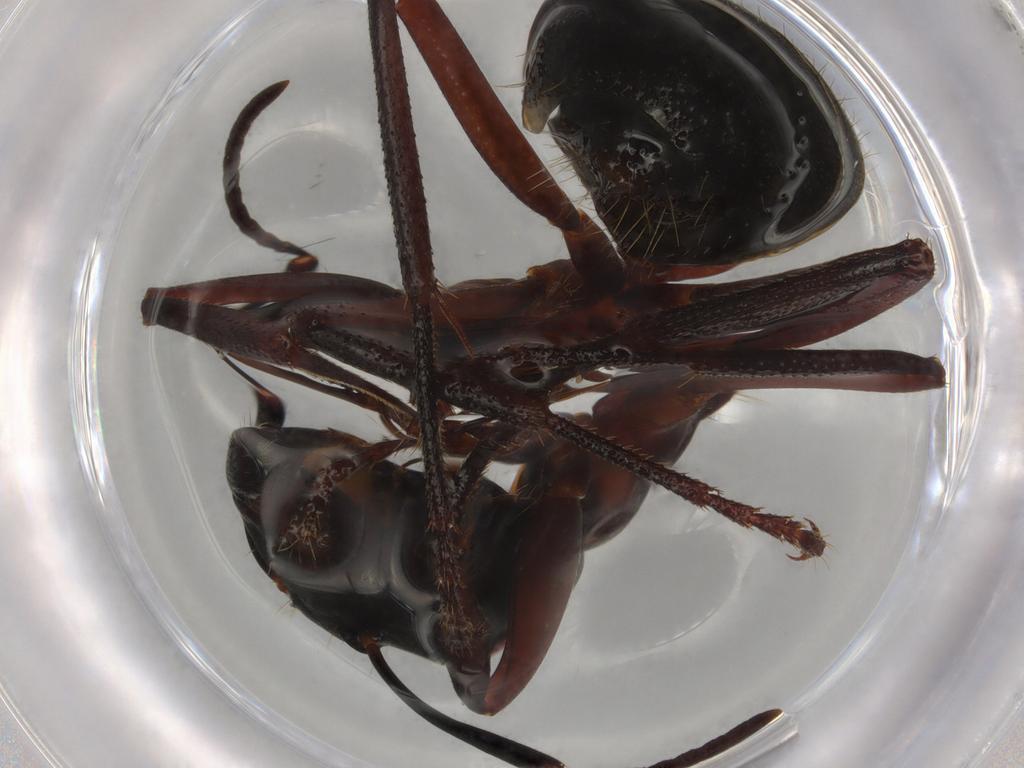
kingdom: Animalia
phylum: Arthropoda
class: Insecta
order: Hymenoptera
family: Formicidae
